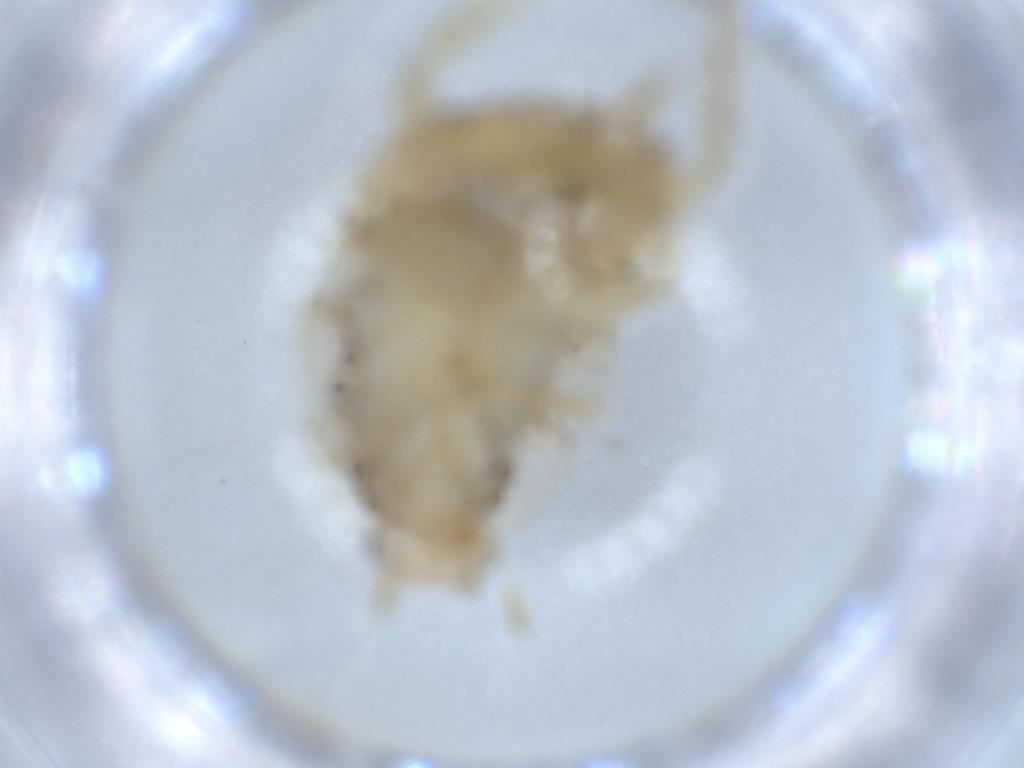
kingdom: Animalia
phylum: Arthropoda
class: Insecta
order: Blattodea
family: Ectobiidae
